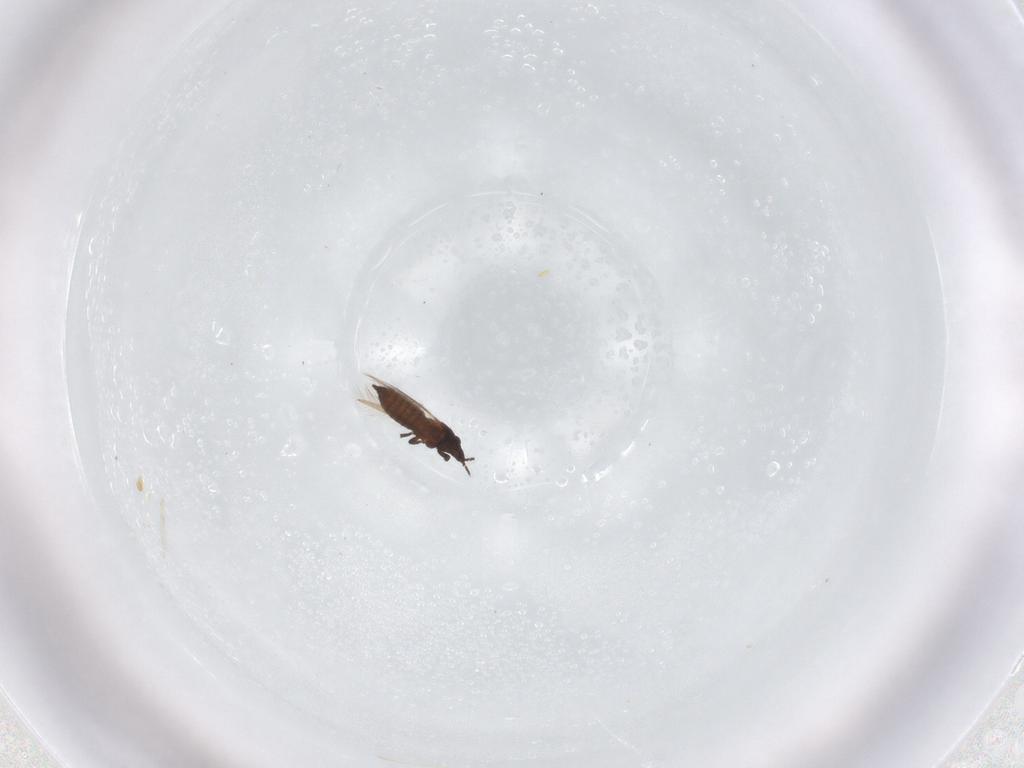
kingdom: Animalia
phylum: Arthropoda
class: Insecta
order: Thysanoptera
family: Thripidae
